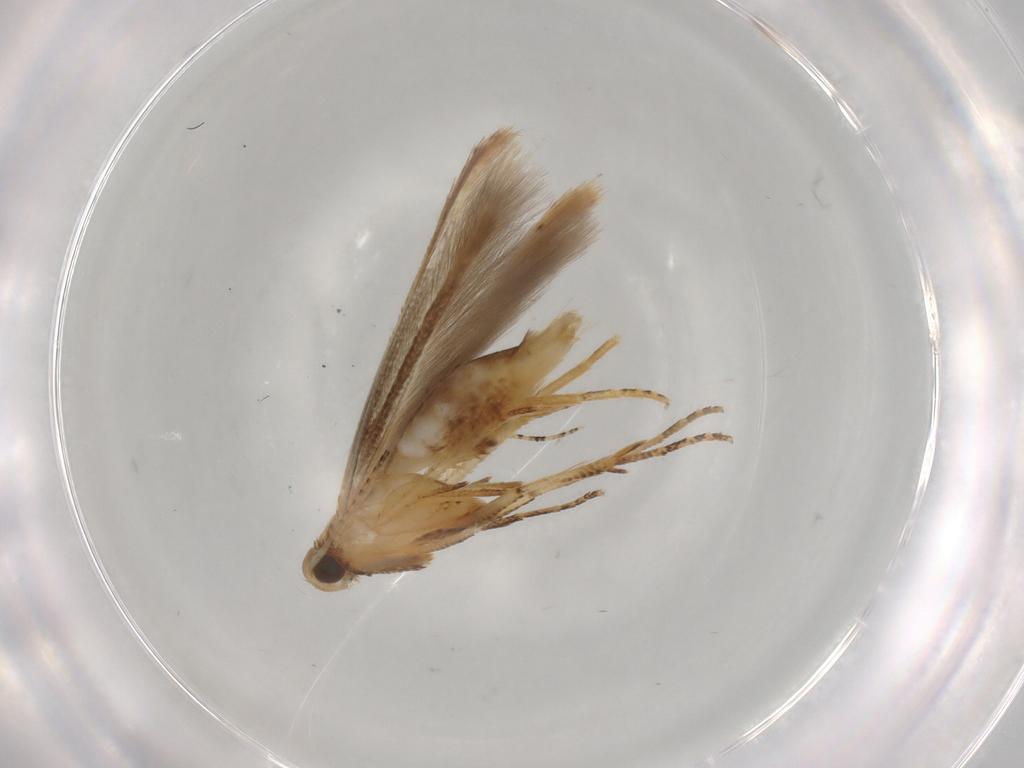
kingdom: Animalia
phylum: Arthropoda
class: Insecta
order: Lepidoptera
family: Gelechiidae
